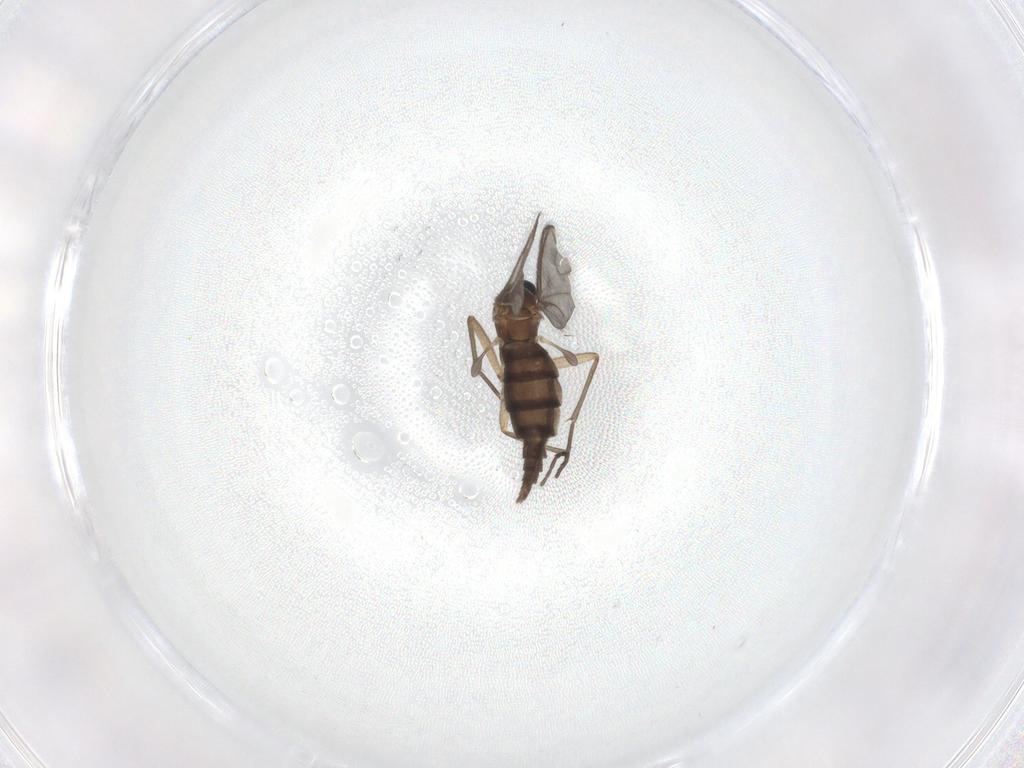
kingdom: Animalia
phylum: Arthropoda
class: Insecta
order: Diptera
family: Sciaridae
